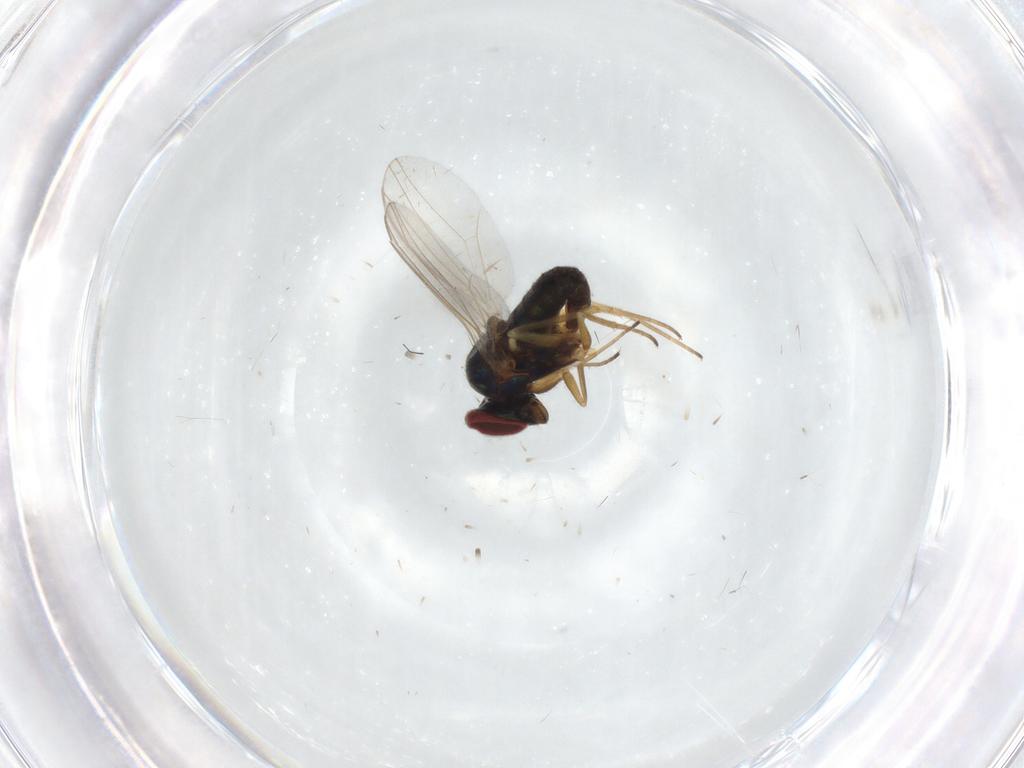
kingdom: Animalia
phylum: Arthropoda
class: Insecta
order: Diptera
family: Dolichopodidae
